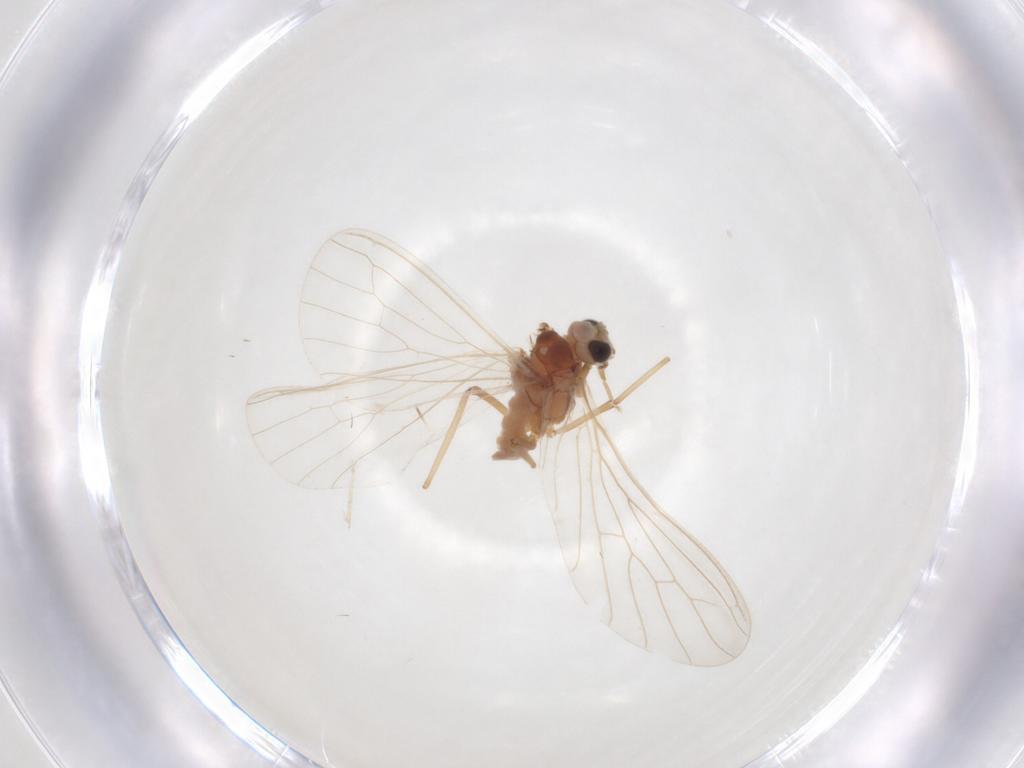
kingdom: Animalia
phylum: Arthropoda
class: Insecta
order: Neuroptera
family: Coniopterygidae
